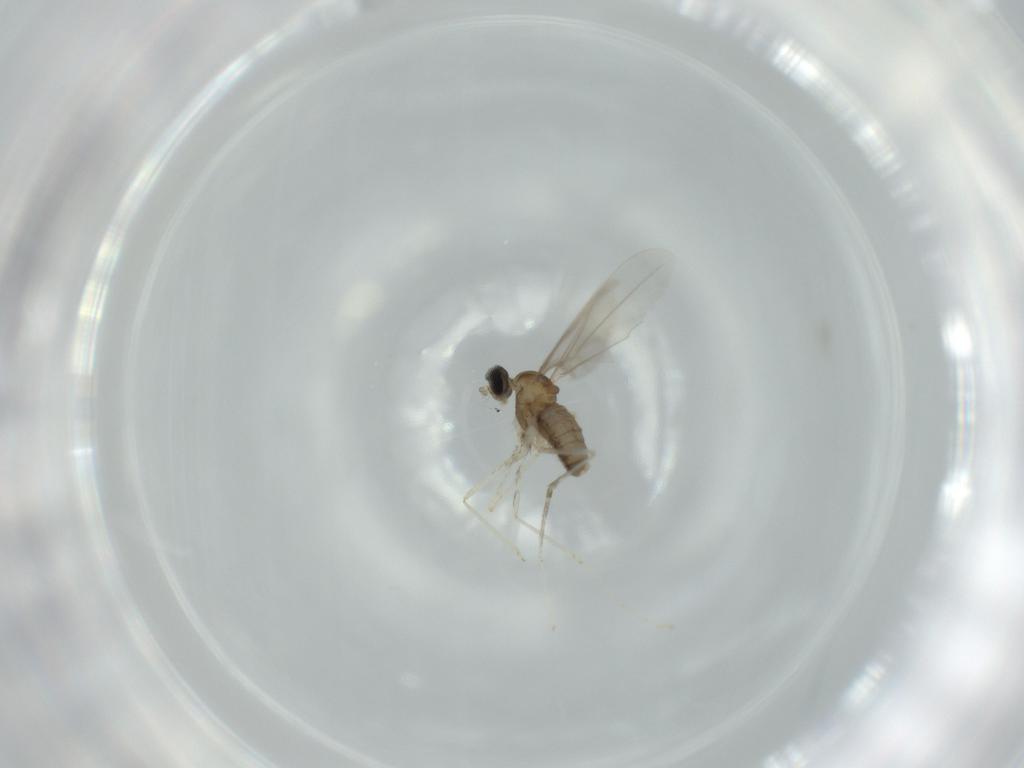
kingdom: Animalia
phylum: Arthropoda
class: Insecta
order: Diptera
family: Cecidomyiidae
